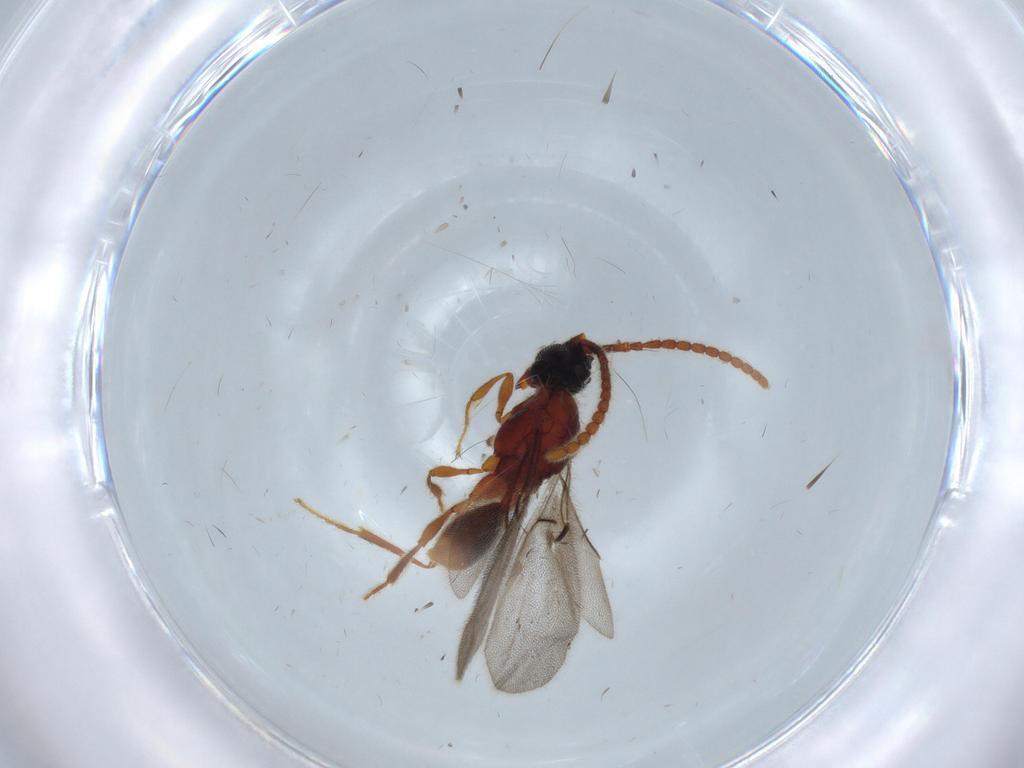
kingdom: Animalia
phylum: Arthropoda
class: Insecta
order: Hymenoptera
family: Diapriidae
